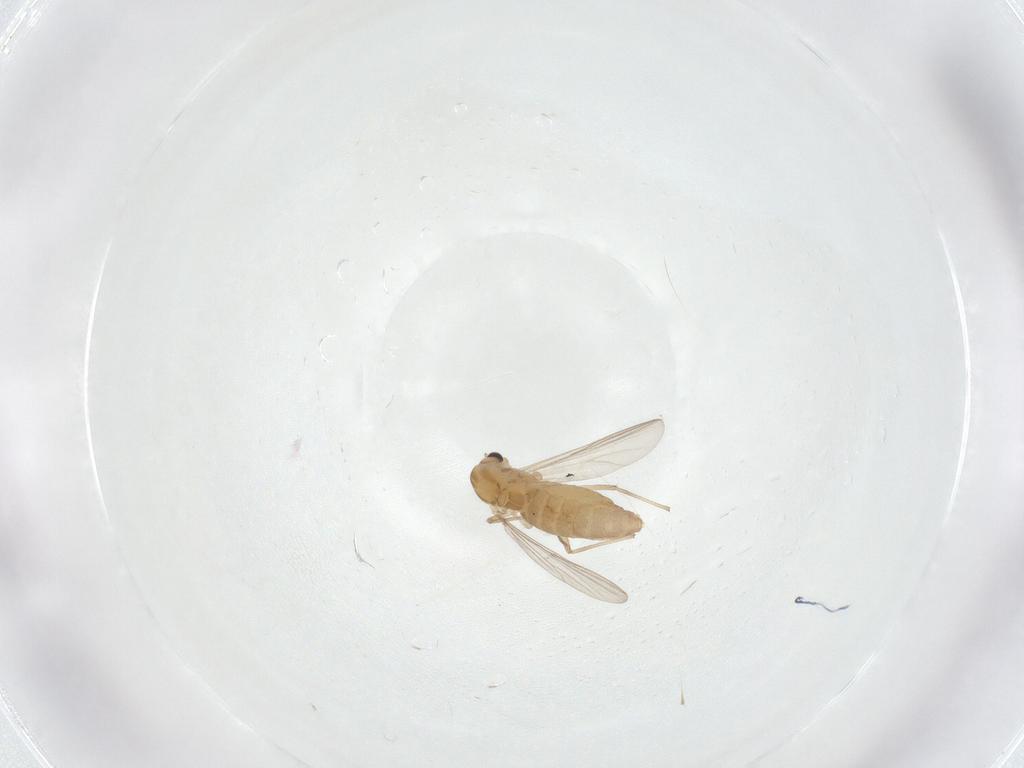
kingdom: Animalia
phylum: Arthropoda
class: Insecta
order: Diptera
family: Chironomidae
